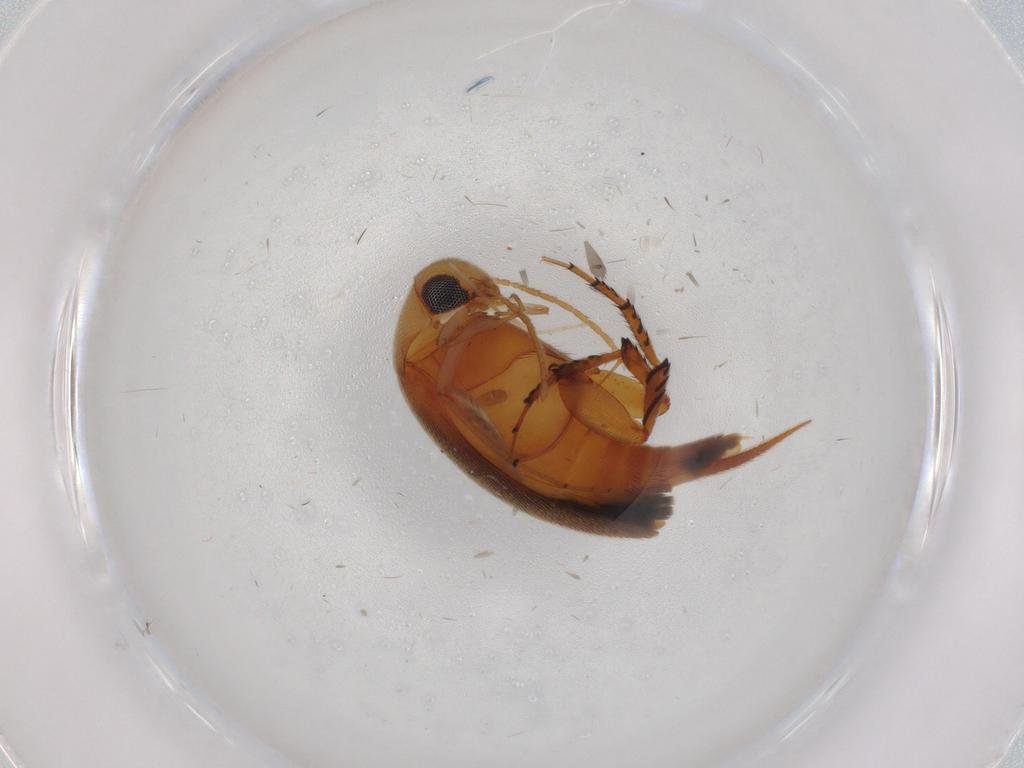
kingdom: Animalia
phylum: Arthropoda
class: Insecta
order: Coleoptera
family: Mordellidae
